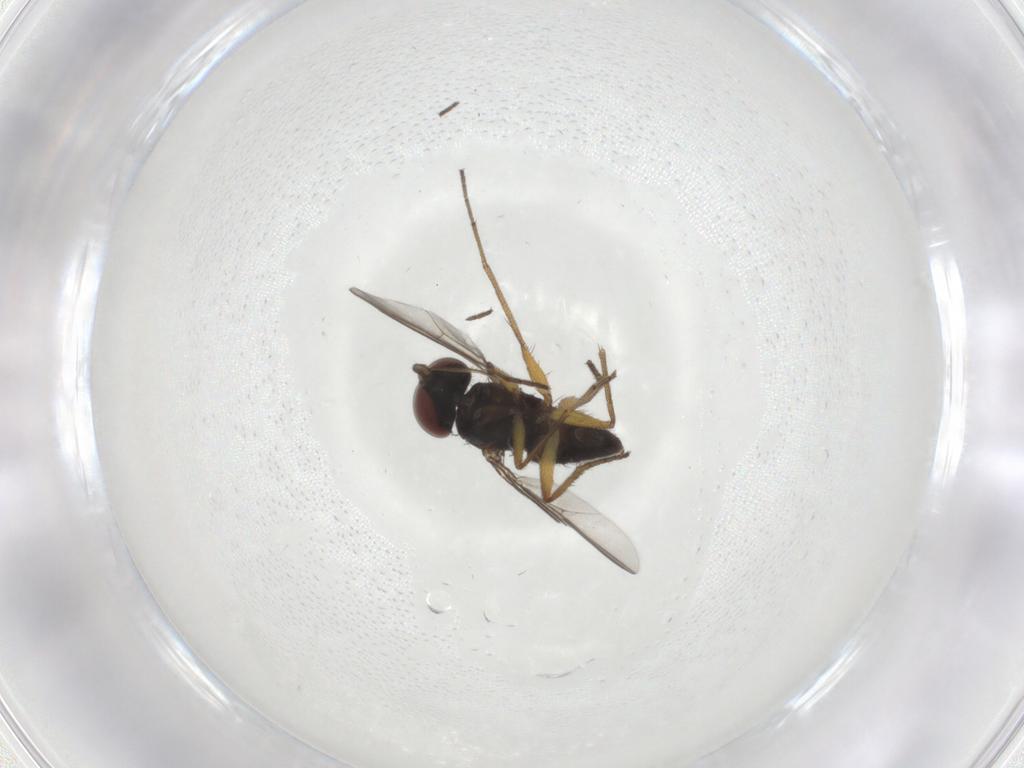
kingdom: Animalia
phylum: Arthropoda
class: Insecta
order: Diptera
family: Dolichopodidae
